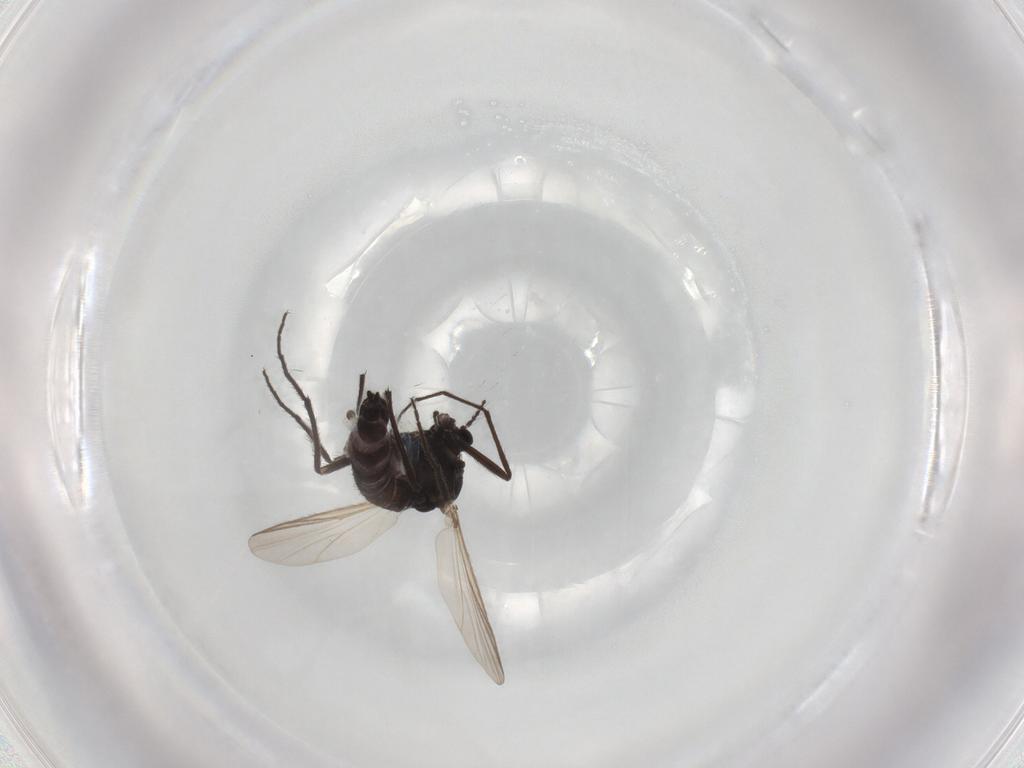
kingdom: Animalia
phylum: Arthropoda
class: Insecta
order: Diptera
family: Chironomidae
